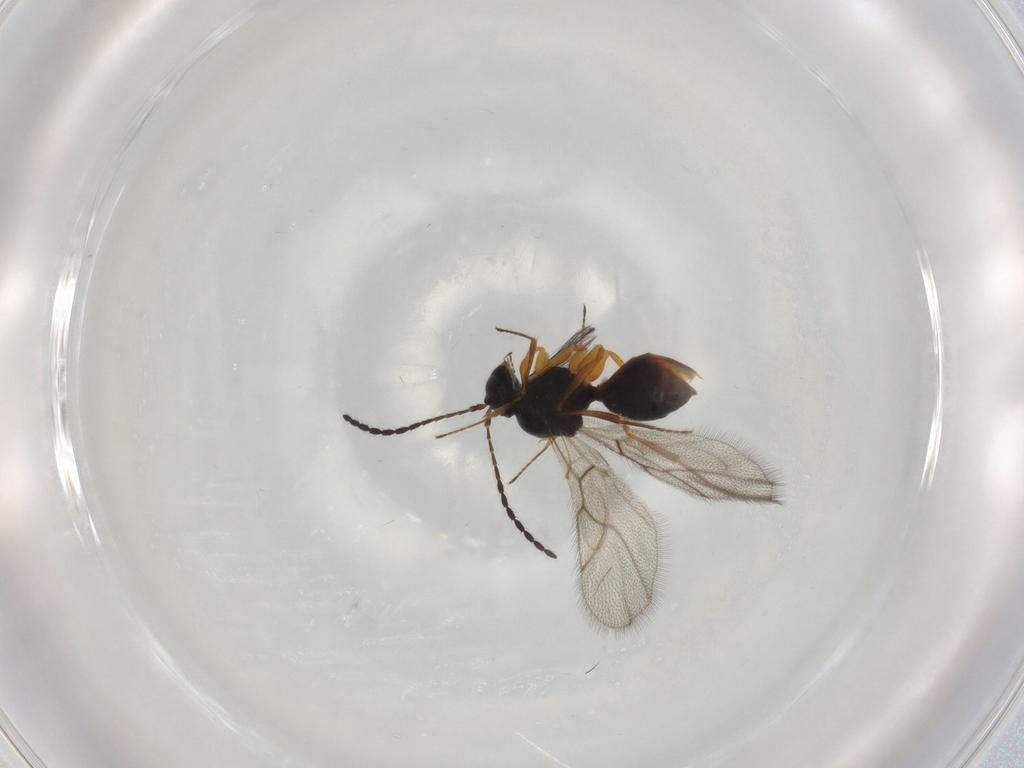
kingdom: Animalia
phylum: Arthropoda
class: Insecta
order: Hymenoptera
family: Figitidae
